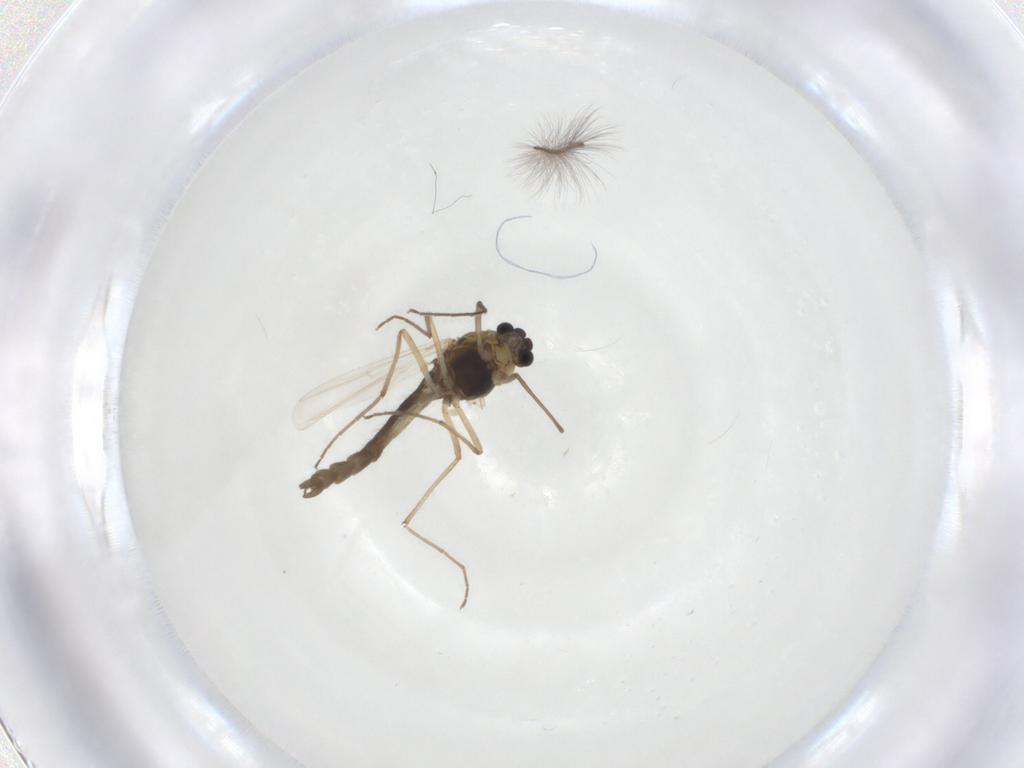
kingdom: Animalia
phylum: Arthropoda
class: Insecta
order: Diptera
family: Chironomidae
